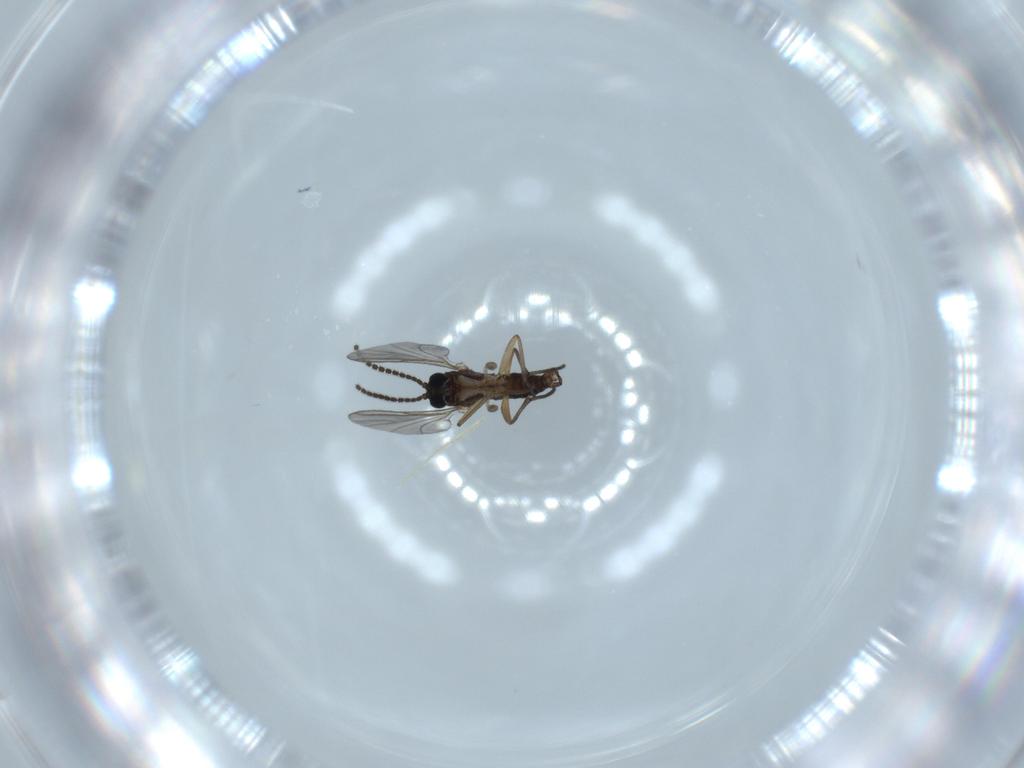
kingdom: Animalia
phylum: Arthropoda
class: Insecta
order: Diptera
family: Sciaridae
